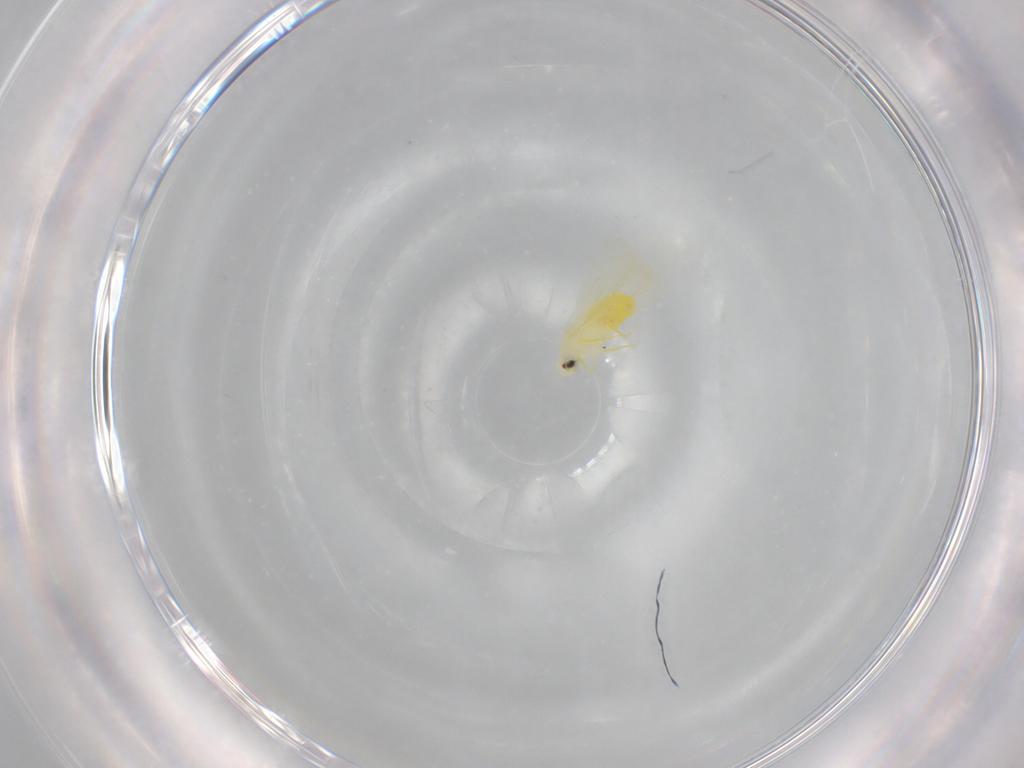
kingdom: Animalia
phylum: Arthropoda
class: Insecta
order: Hemiptera
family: Aleyrodidae
